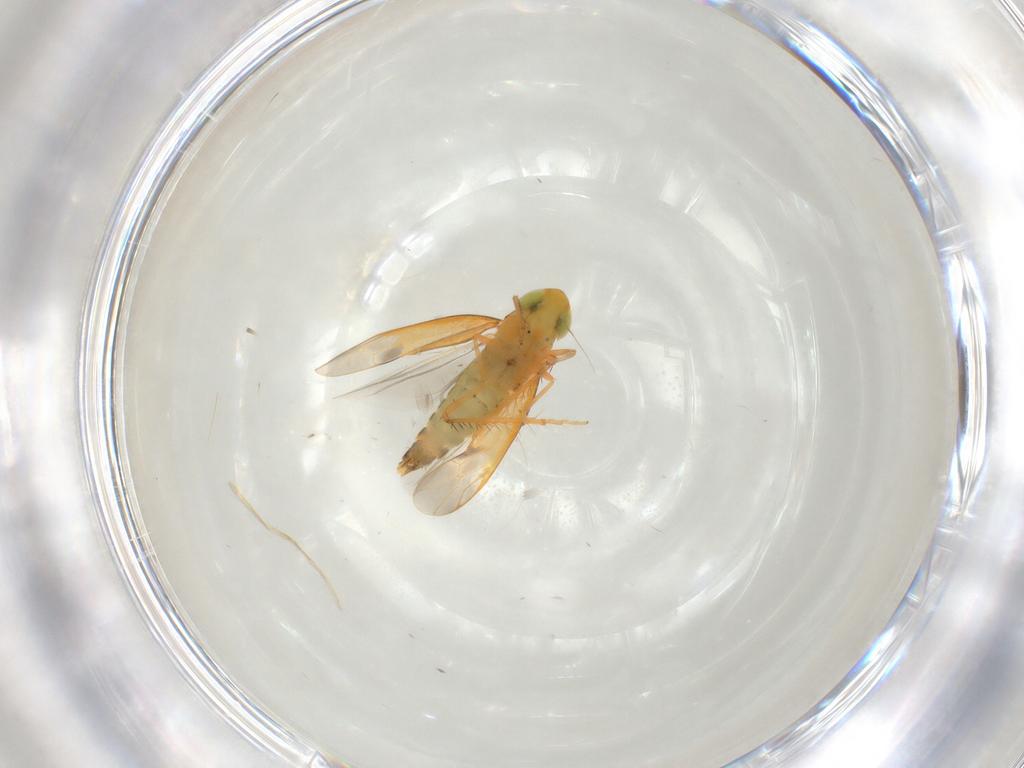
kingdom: Animalia
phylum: Arthropoda
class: Insecta
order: Hemiptera
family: Cicadellidae
